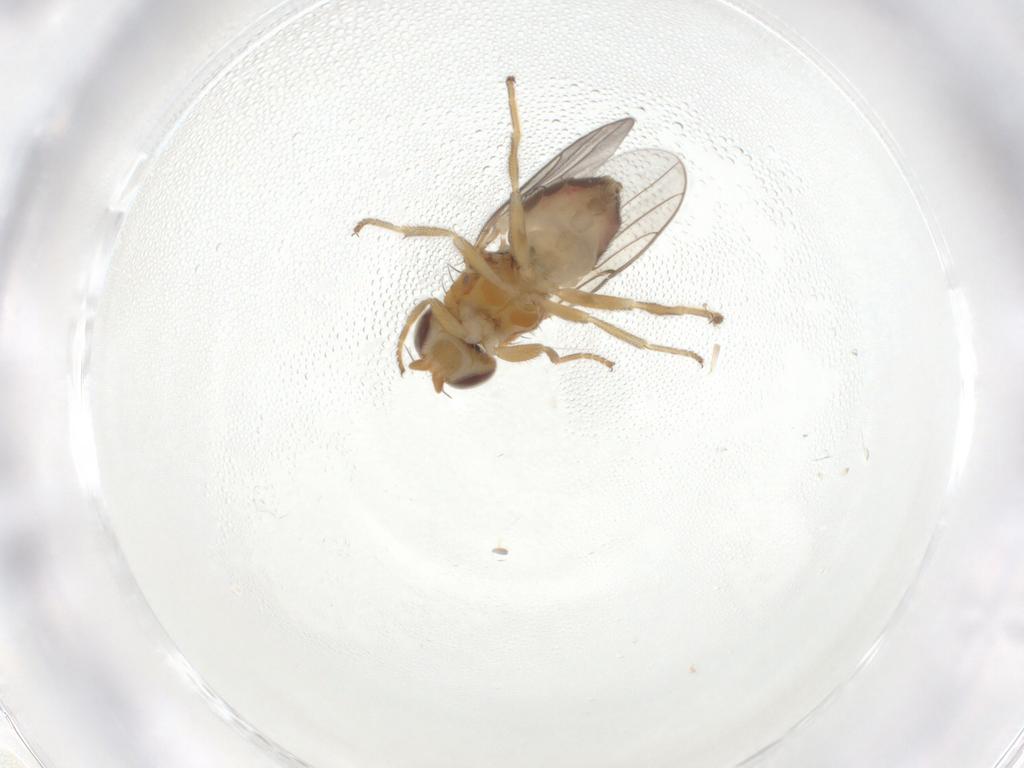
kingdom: Animalia
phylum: Arthropoda
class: Insecta
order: Diptera
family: Chloropidae
